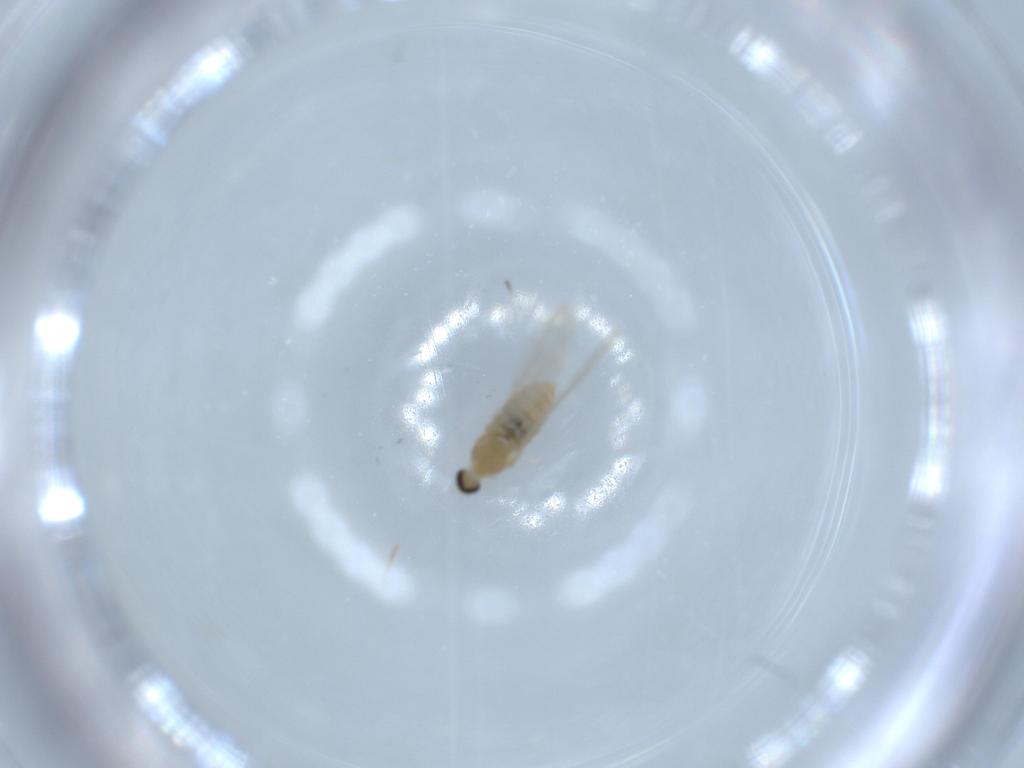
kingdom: Animalia
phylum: Arthropoda
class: Insecta
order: Diptera
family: Cecidomyiidae
